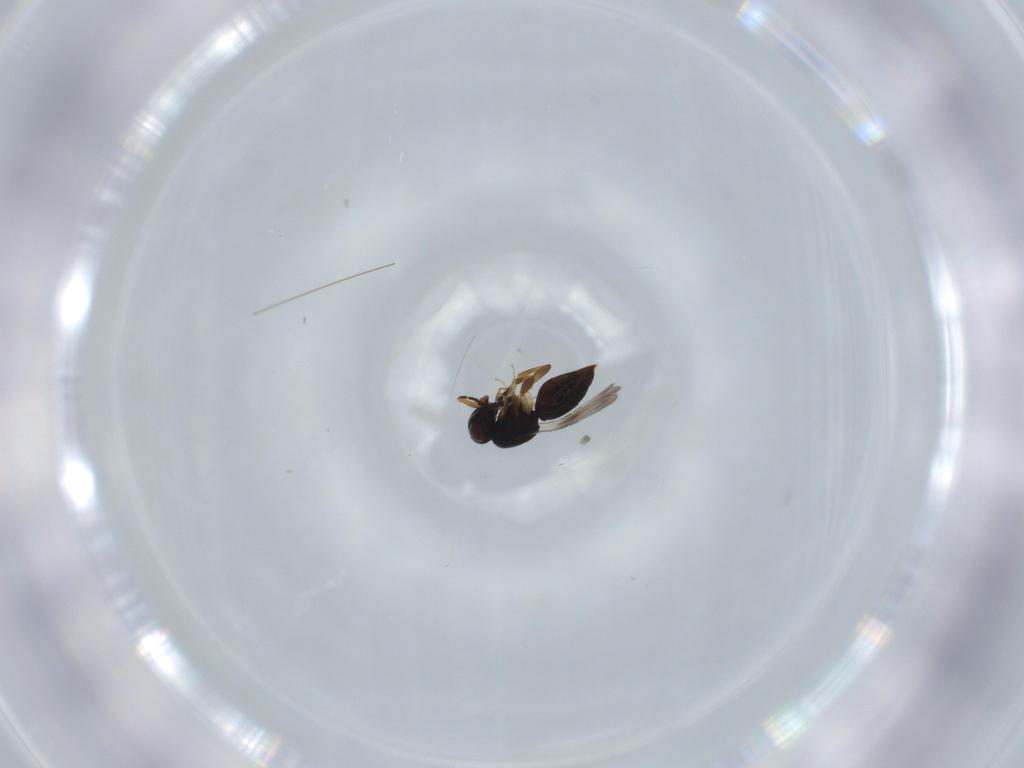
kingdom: Animalia
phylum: Arthropoda
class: Insecta
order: Hymenoptera
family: Ceraphronidae
